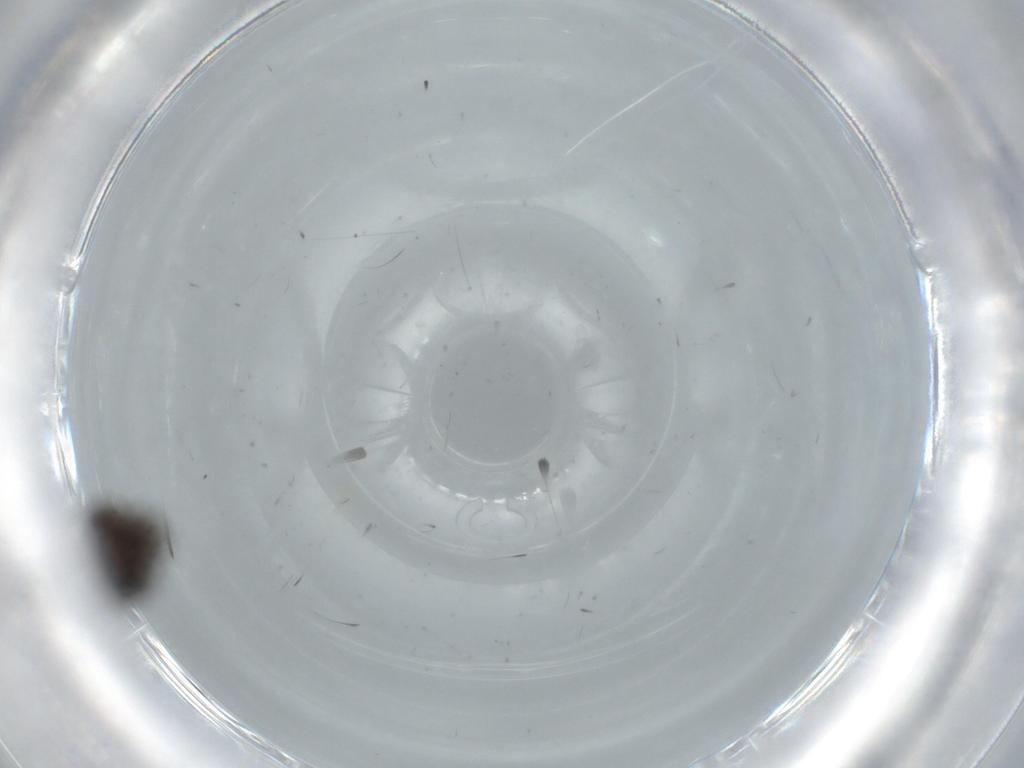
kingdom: Animalia
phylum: Arthropoda
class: Insecta
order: Diptera
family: Psychodidae
